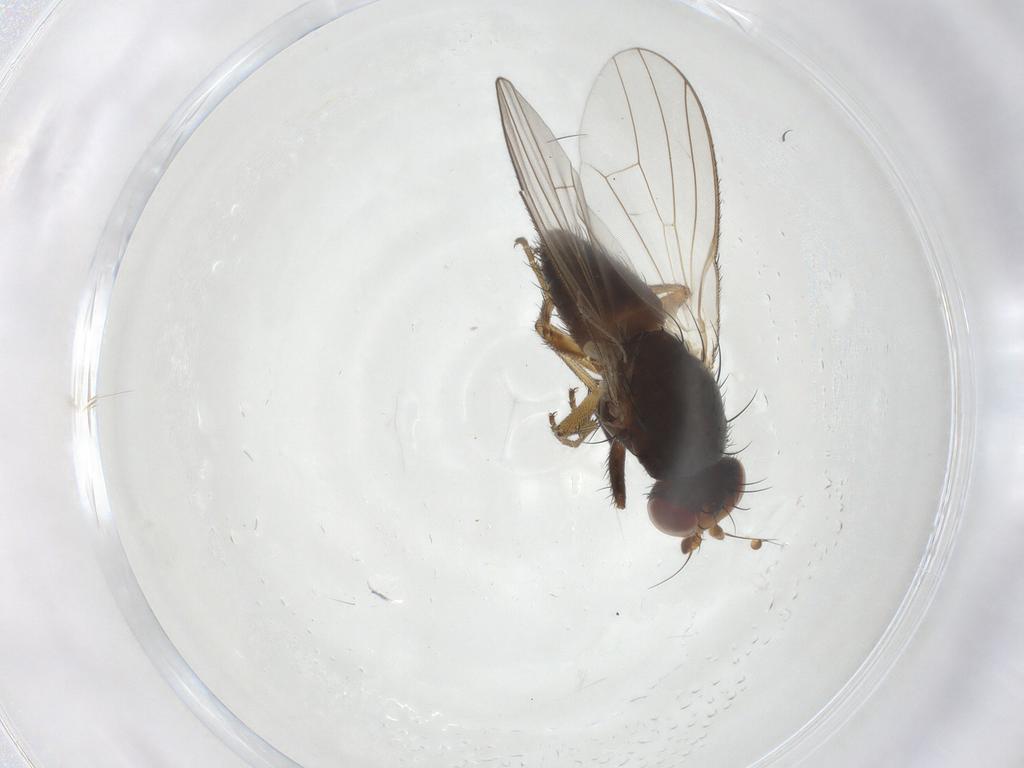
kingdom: Animalia
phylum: Arthropoda
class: Insecta
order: Diptera
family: Heleomyzidae
